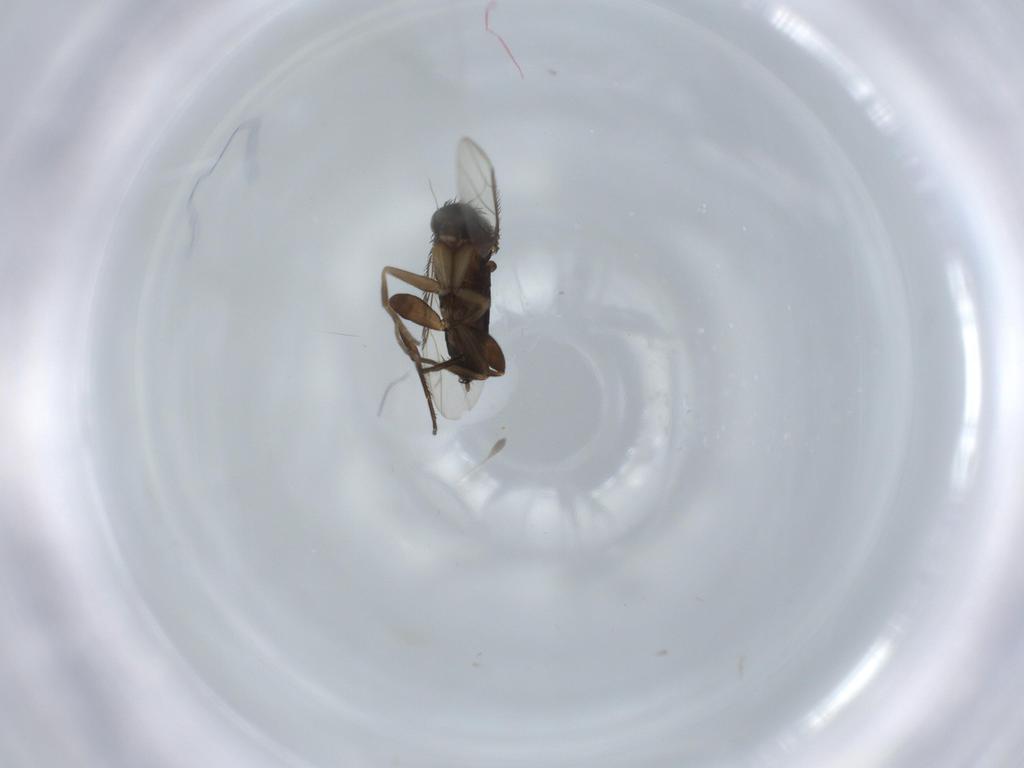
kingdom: Animalia
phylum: Arthropoda
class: Insecta
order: Diptera
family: Phoridae
